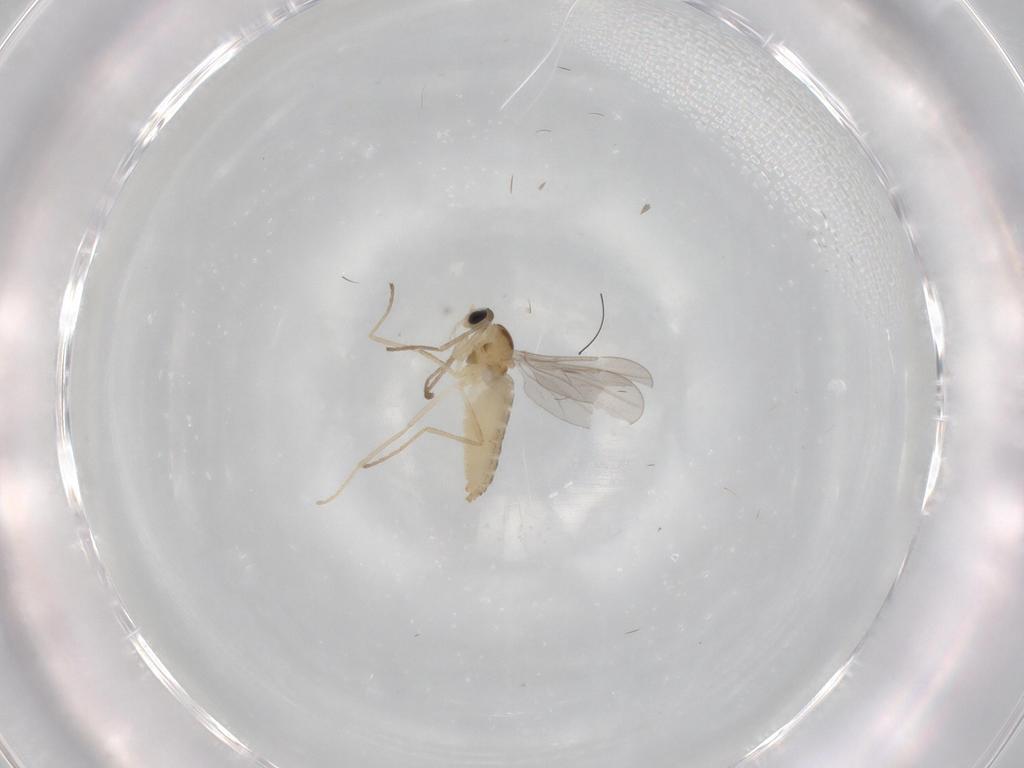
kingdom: Animalia
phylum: Arthropoda
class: Insecta
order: Diptera
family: Cecidomyiidae
